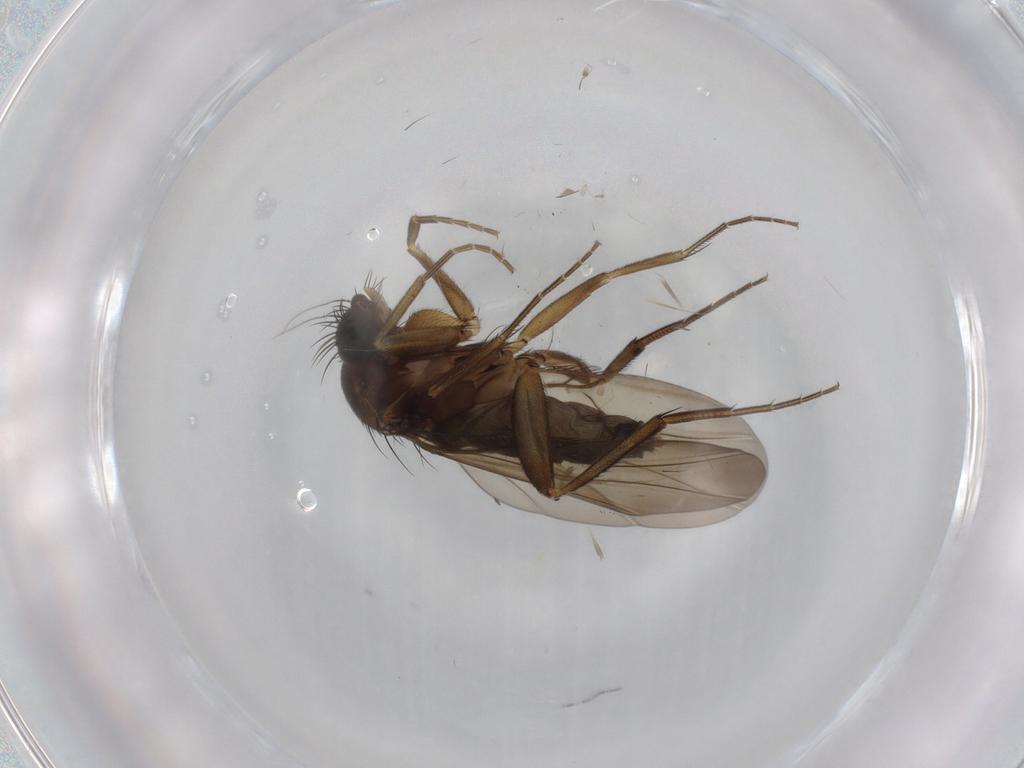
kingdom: Animalia
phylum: Arthropoda
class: Insecta
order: Diptera
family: Phoridae
